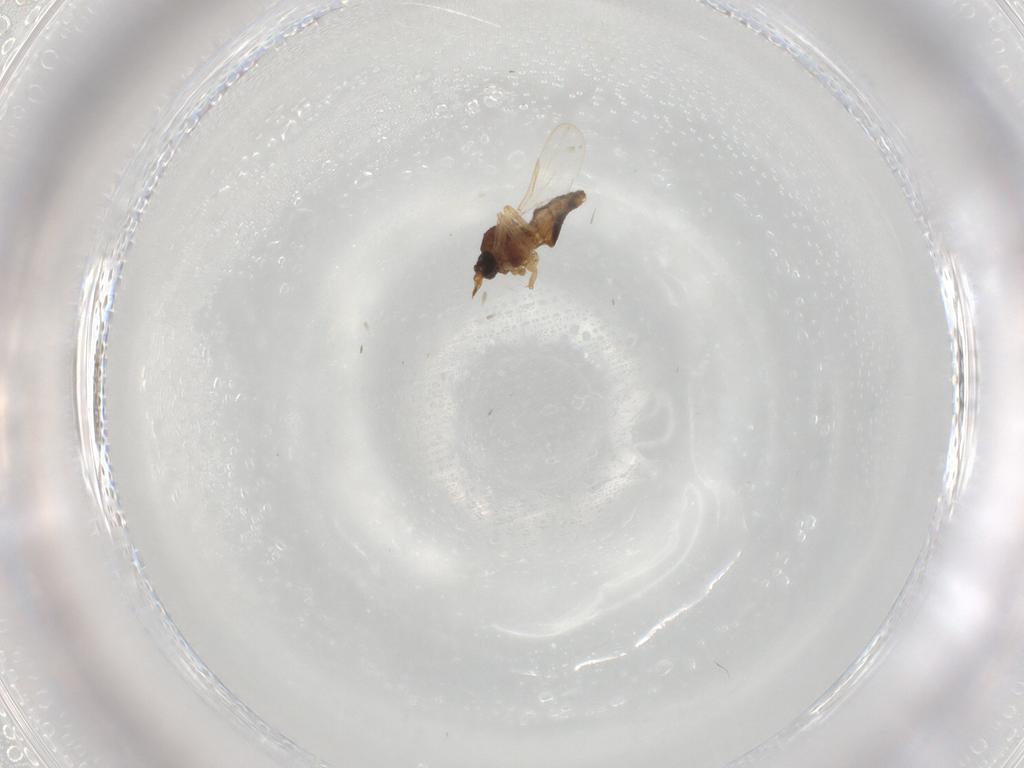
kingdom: Animalia
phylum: Arthropoda
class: Insecta
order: Diptera
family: Ceratopogonidae
